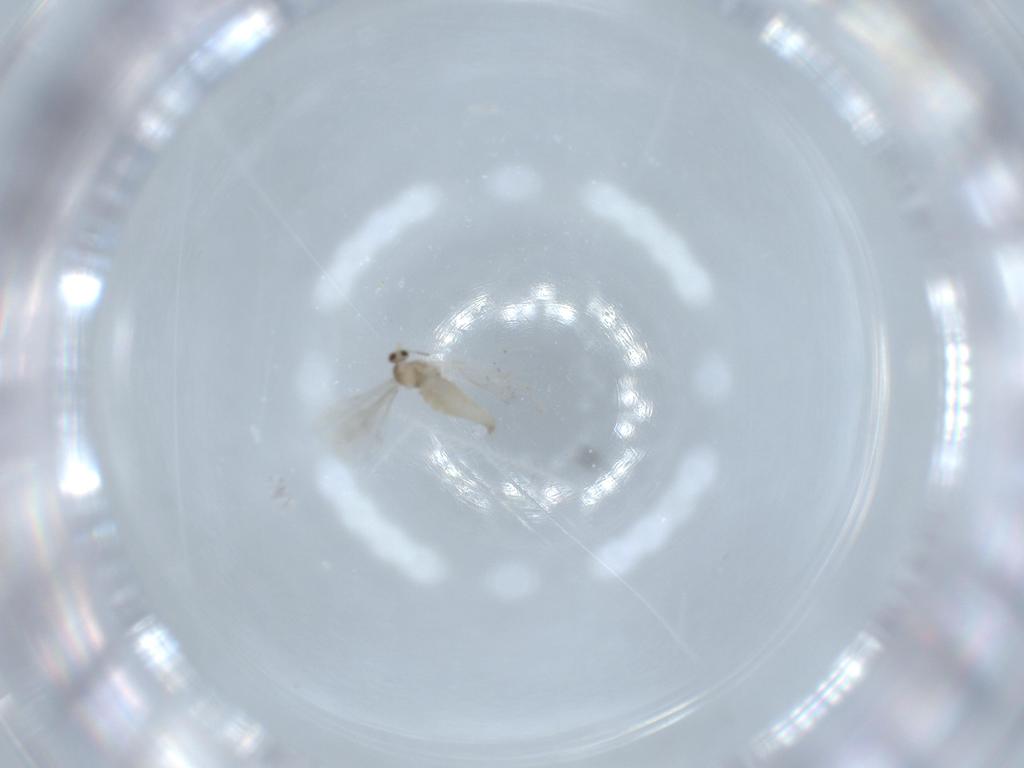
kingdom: Animalia
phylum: Arthropoda
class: Insecta
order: Diptera
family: Cecidomyiidae
